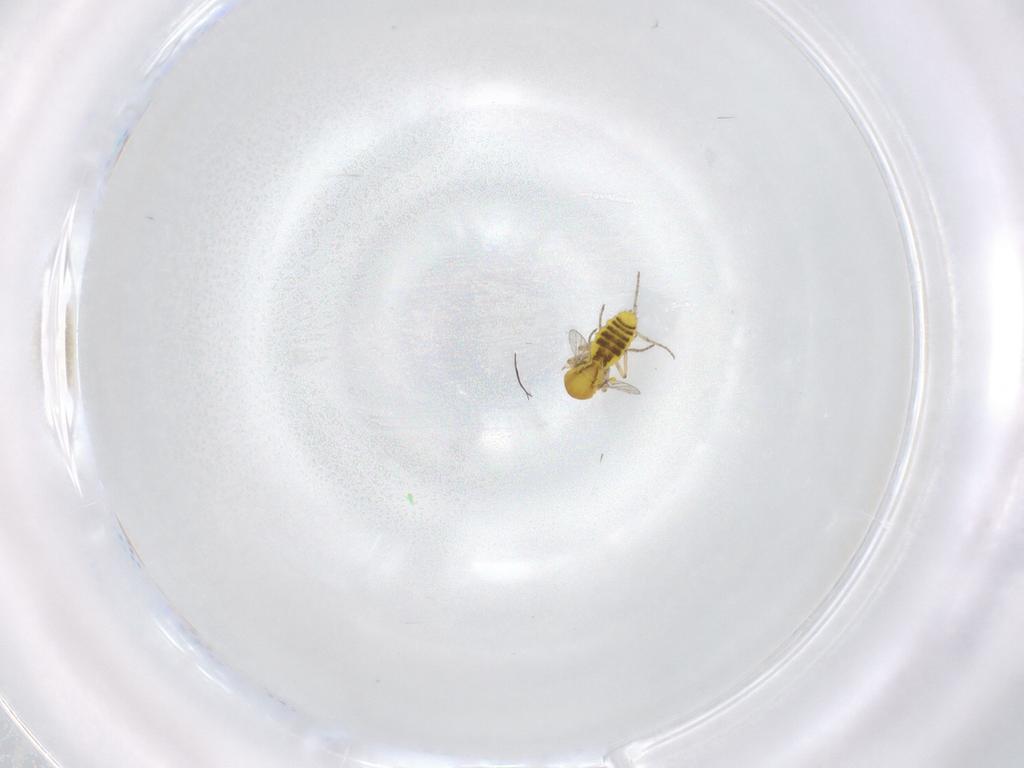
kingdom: Animalia
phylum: Arthropoda
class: Insecta
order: Diptera
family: Ceratopogonidae
